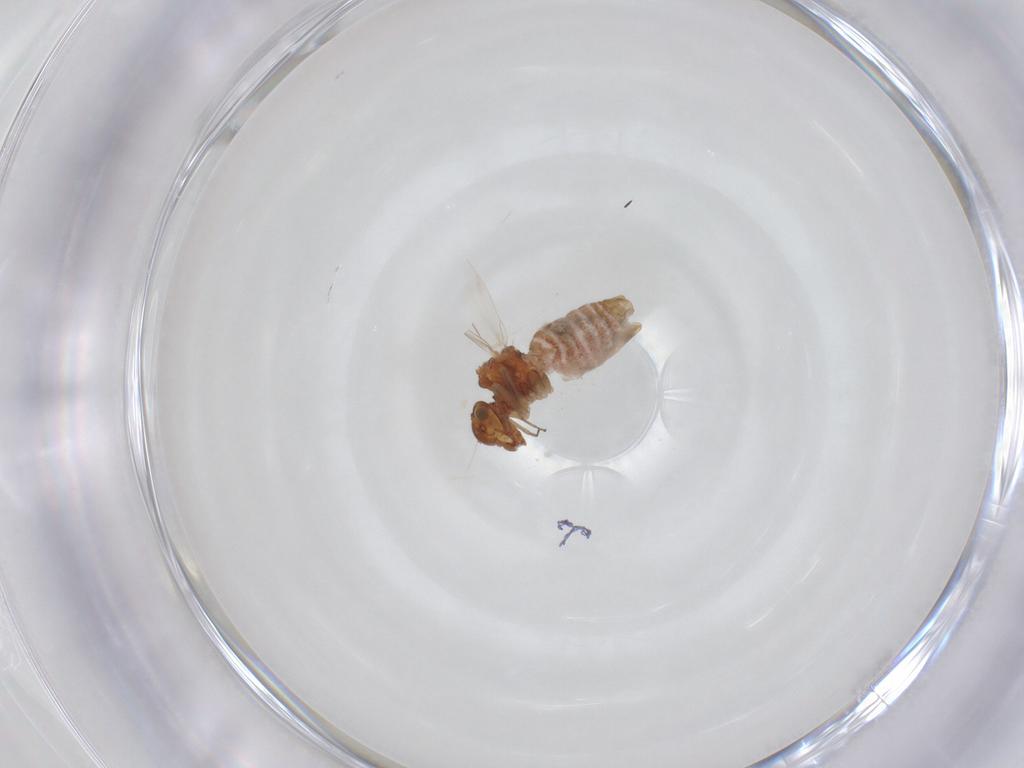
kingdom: Animalia
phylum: Arthropoda
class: Insecta
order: Psocodea
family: Lachesillidae
